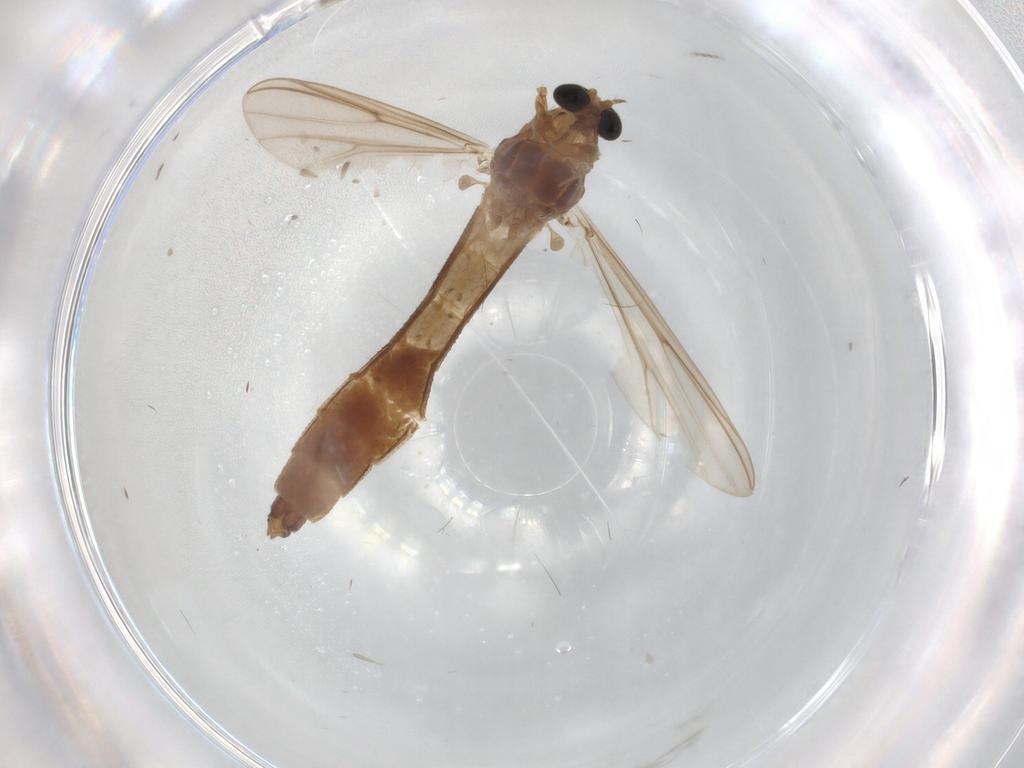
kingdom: Animalia
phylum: Arthropoda
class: Insecta
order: Diptera
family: Chironomidae
